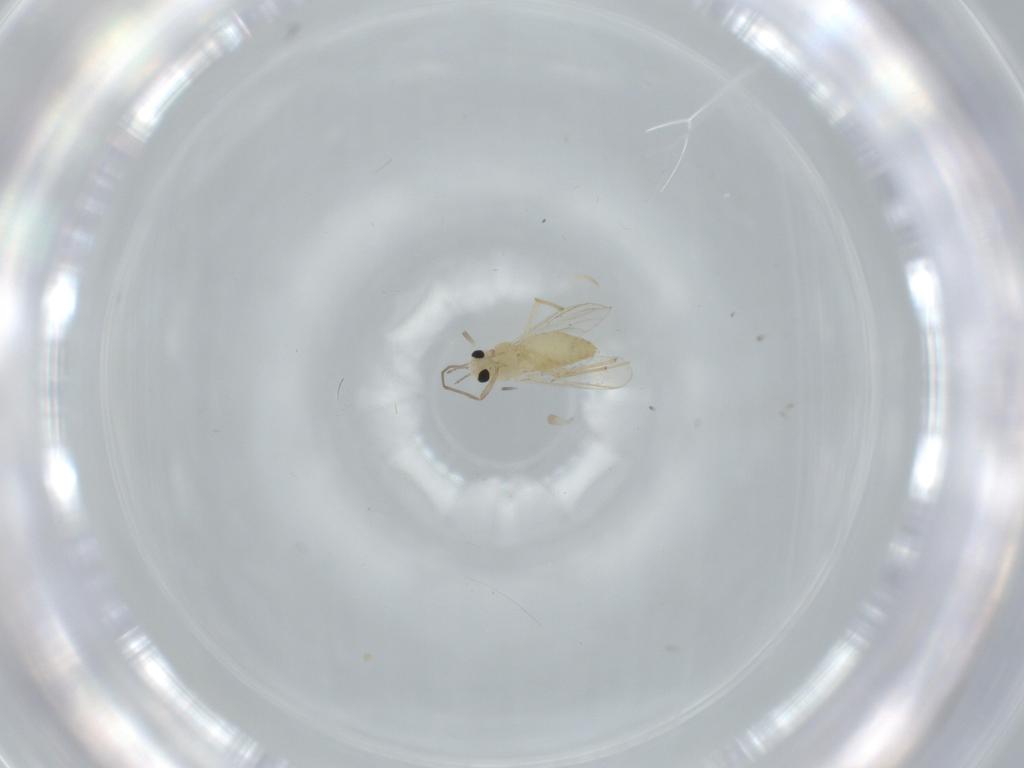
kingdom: Animalia
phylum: Arthropoda
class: Insecta
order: Diptera
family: Chironomidae
